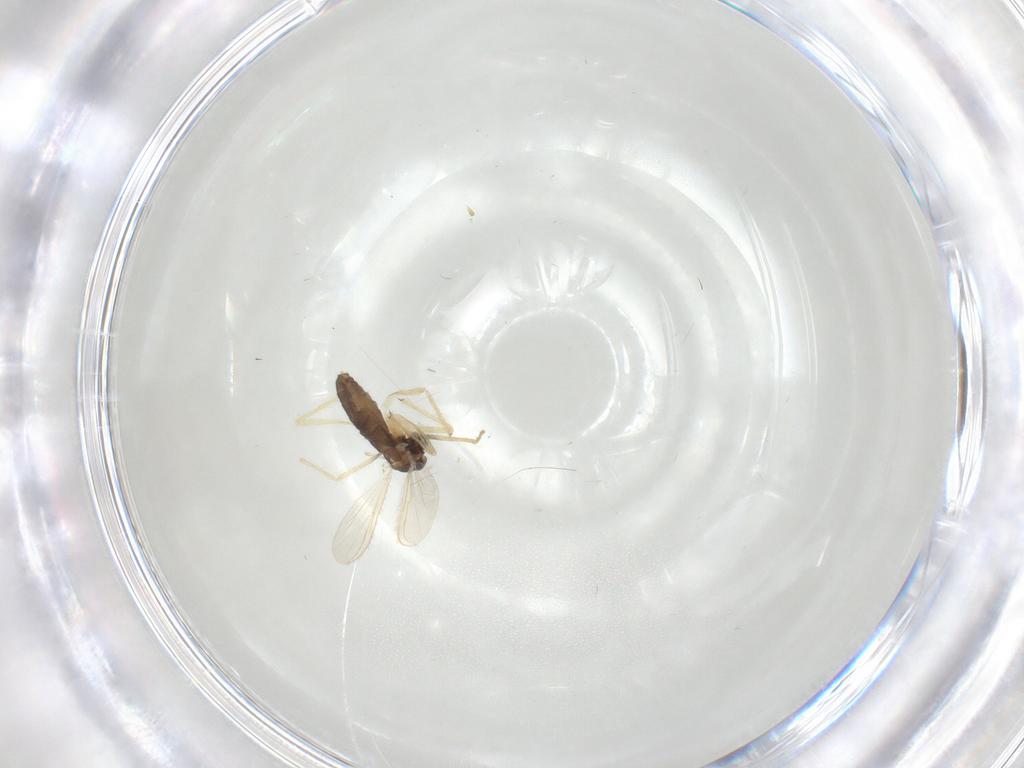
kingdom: Animalia
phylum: Arthropoda
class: Insecta
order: Diptera
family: Chironomidae
